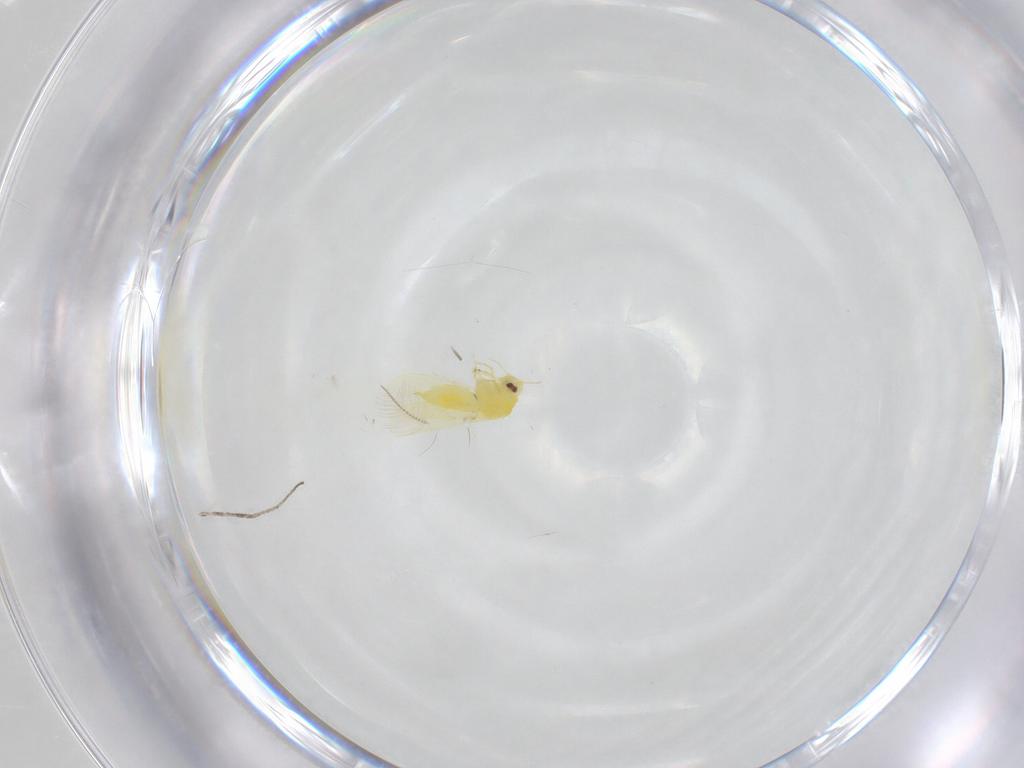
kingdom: Animalia
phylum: Arthropoda
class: Insecta
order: Hemiptera
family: Aleyrodidae
